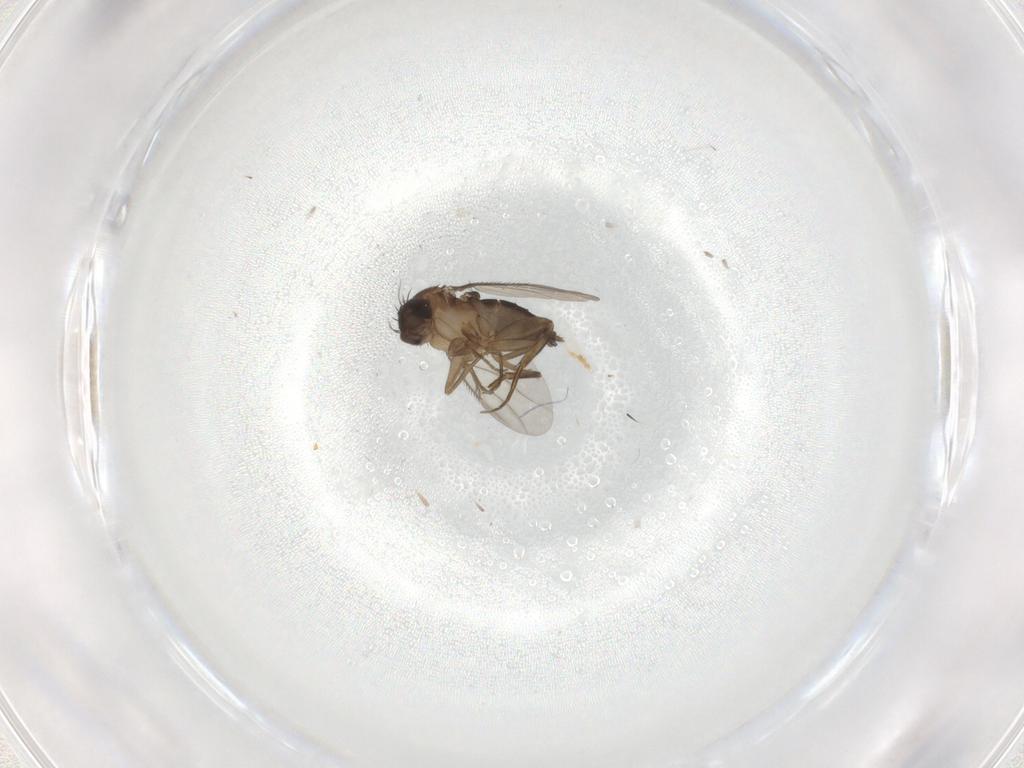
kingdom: Animalia
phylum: Arthropoda
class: Insecta
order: Diptera
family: Phoridae
